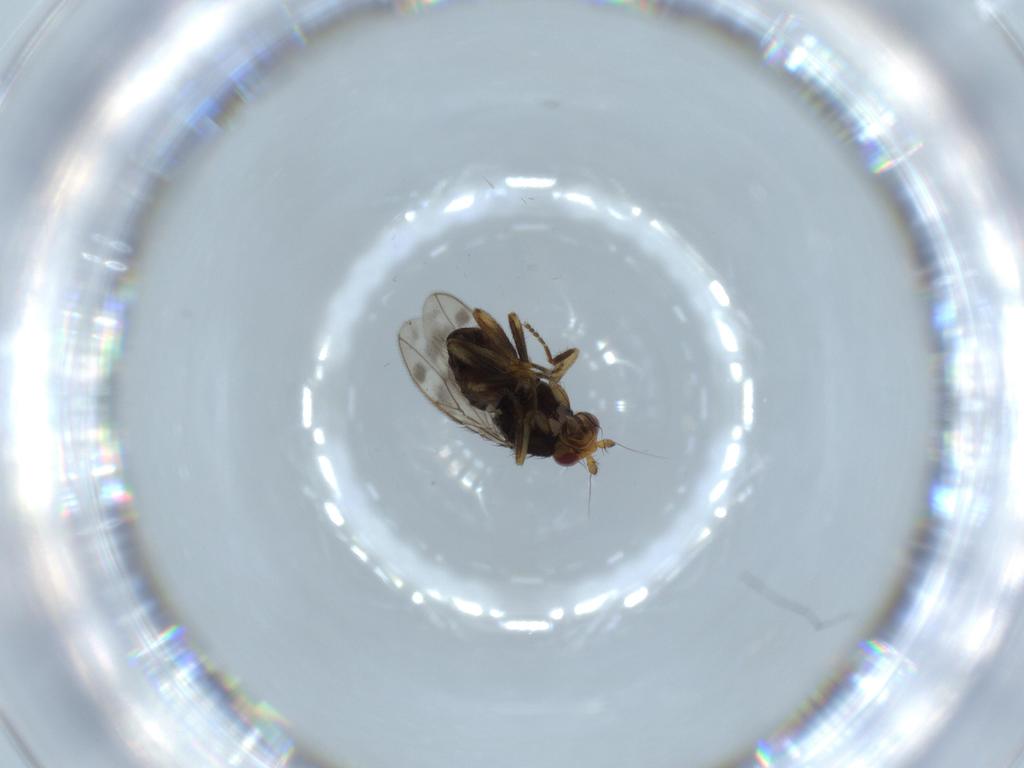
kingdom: Animalia
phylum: Arthropoda
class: Insecta
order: Diptera
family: Sphaeroceridae
